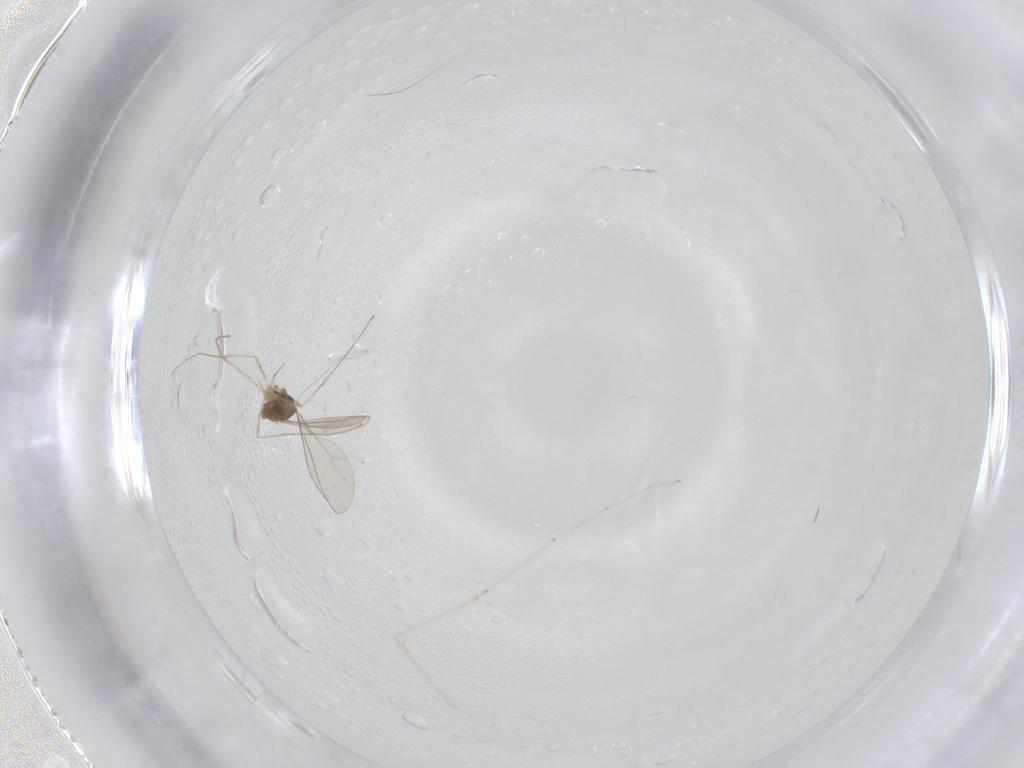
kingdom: Animalia
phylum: Arthropoda
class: Insecta
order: Diptera
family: Cecidomyiidae
